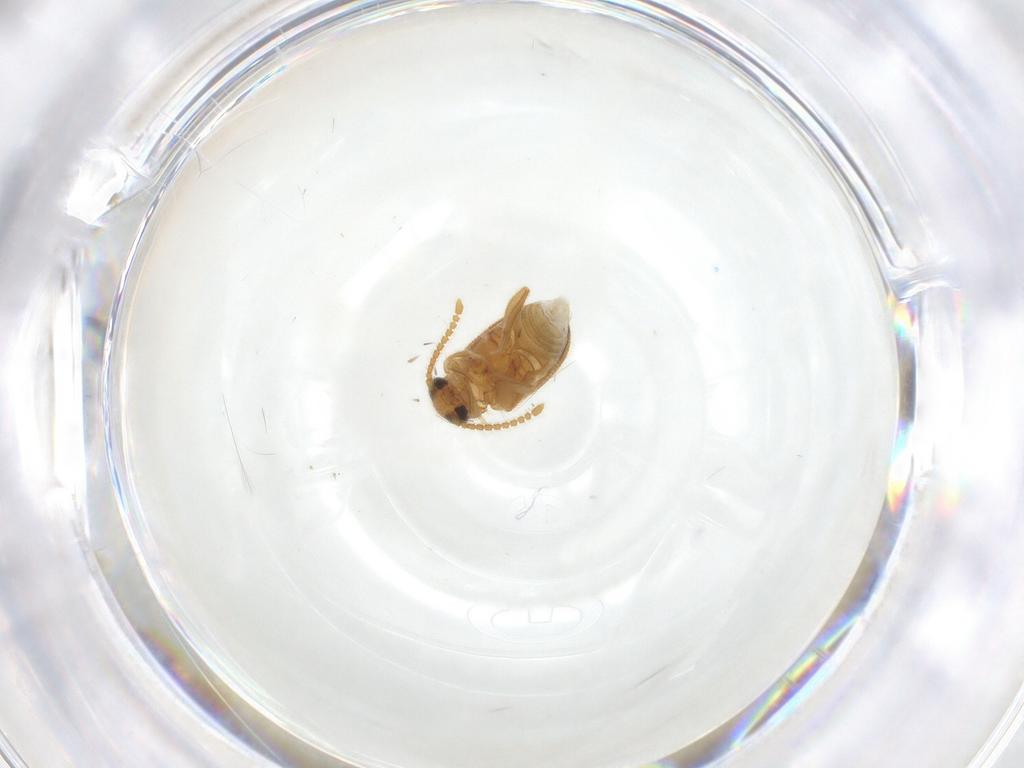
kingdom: Animalia
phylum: Arthropoda
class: Insecta
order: Coleoptera
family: Aderidae
